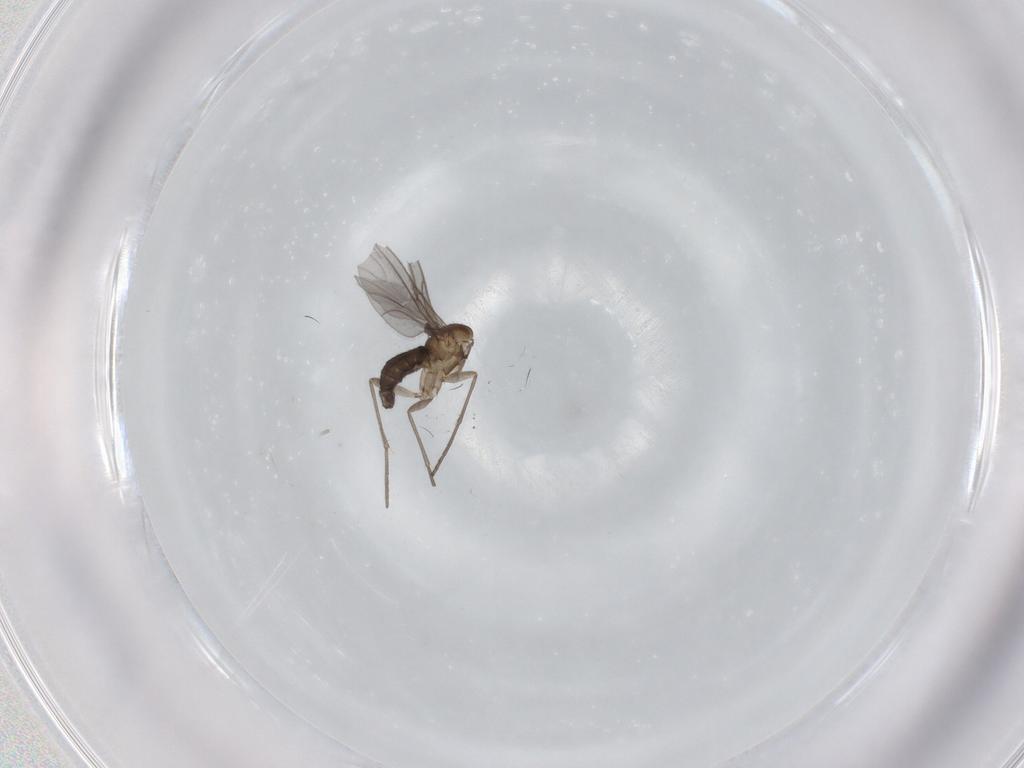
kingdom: Animalia
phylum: Arthropoda
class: Insecta
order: Diptera
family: Sciaridae
